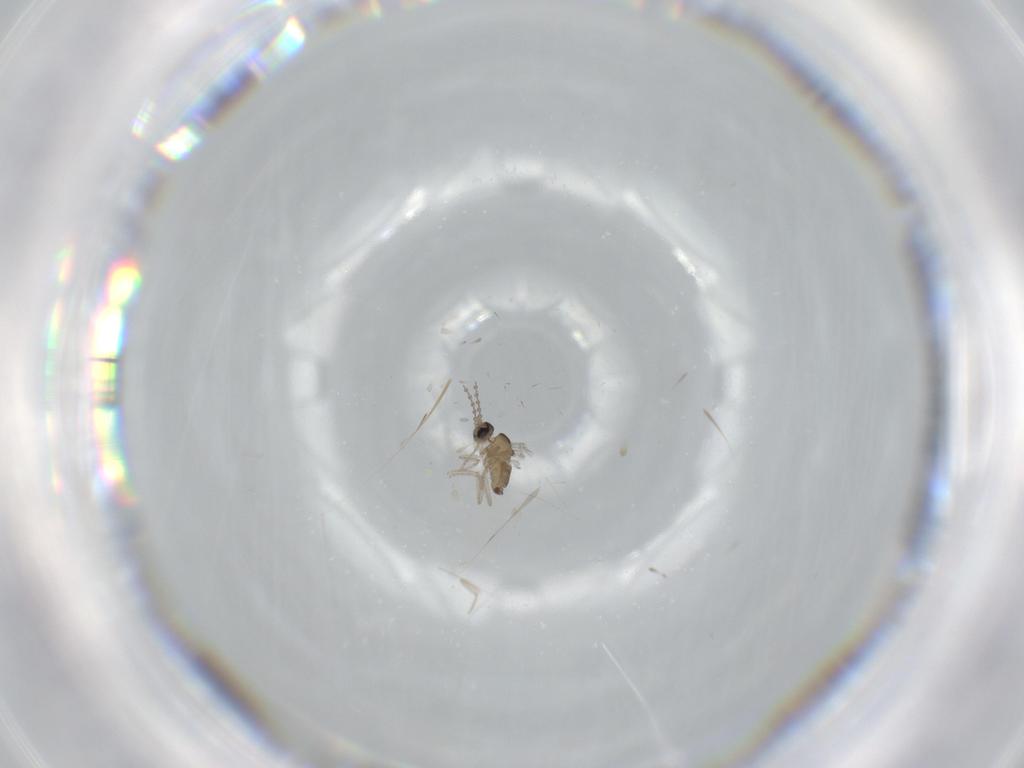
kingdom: Animalia
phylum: Arthropoda
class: Insecta
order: Diptera
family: Cecidomyiidae
